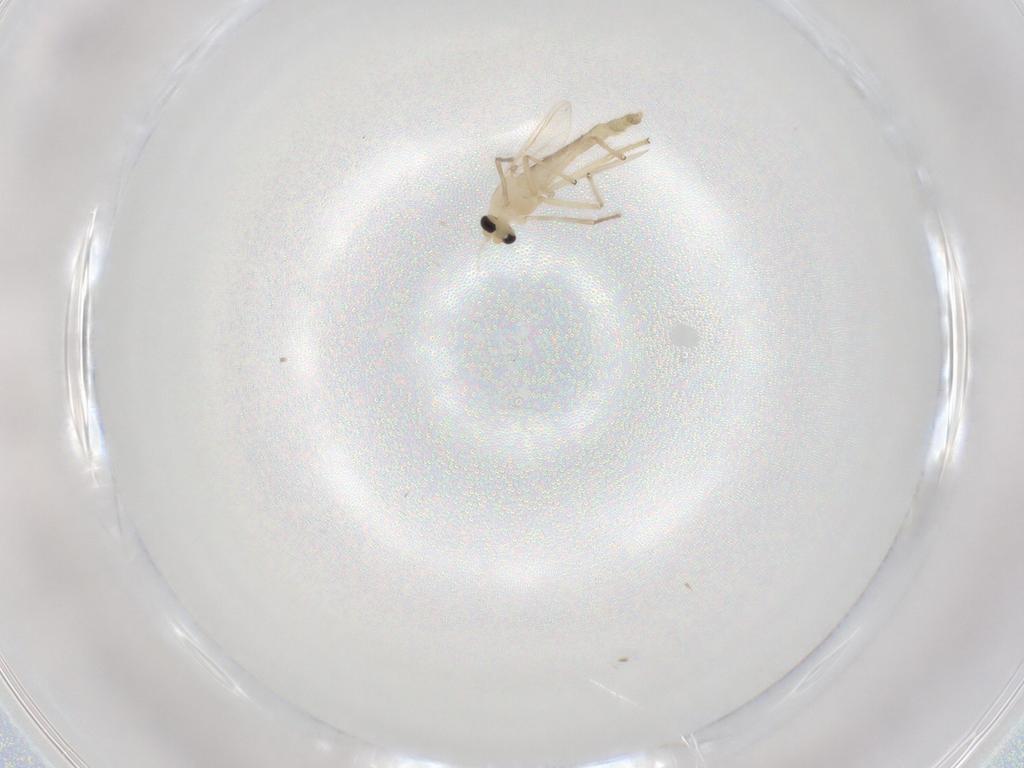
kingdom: Animalia
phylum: Arthropoda
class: Insecta
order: Diptera
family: Chironomidae
